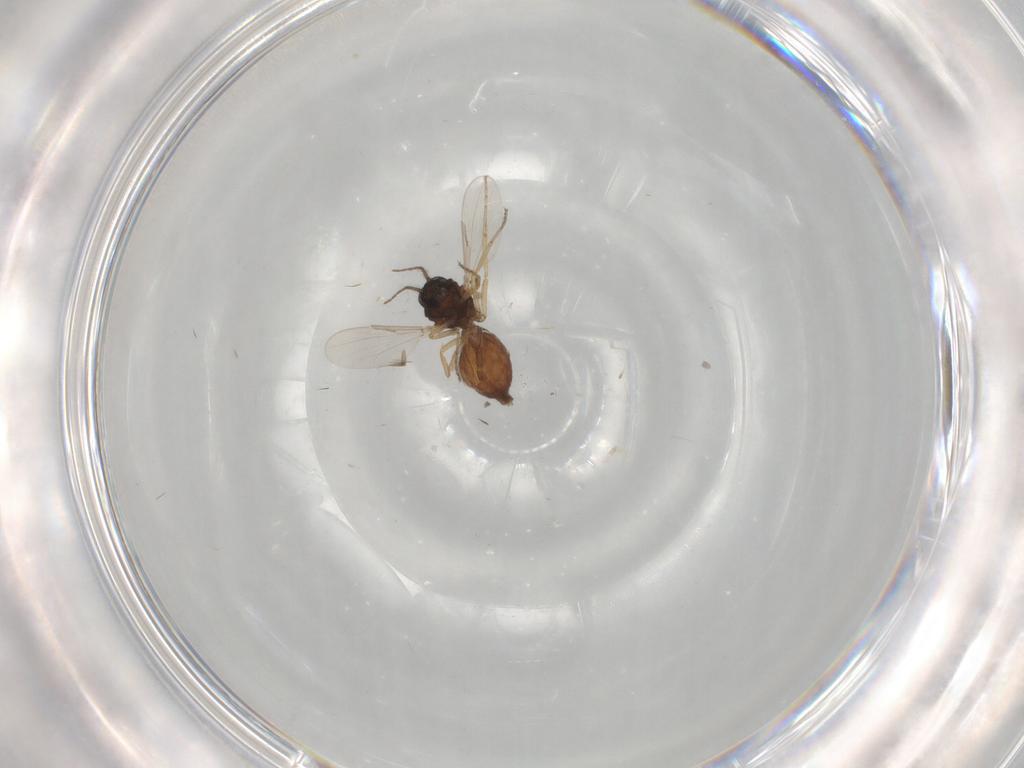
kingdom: Animalia
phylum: Arthropoda
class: Insecta
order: Diptera
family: Ceratopogonidae
